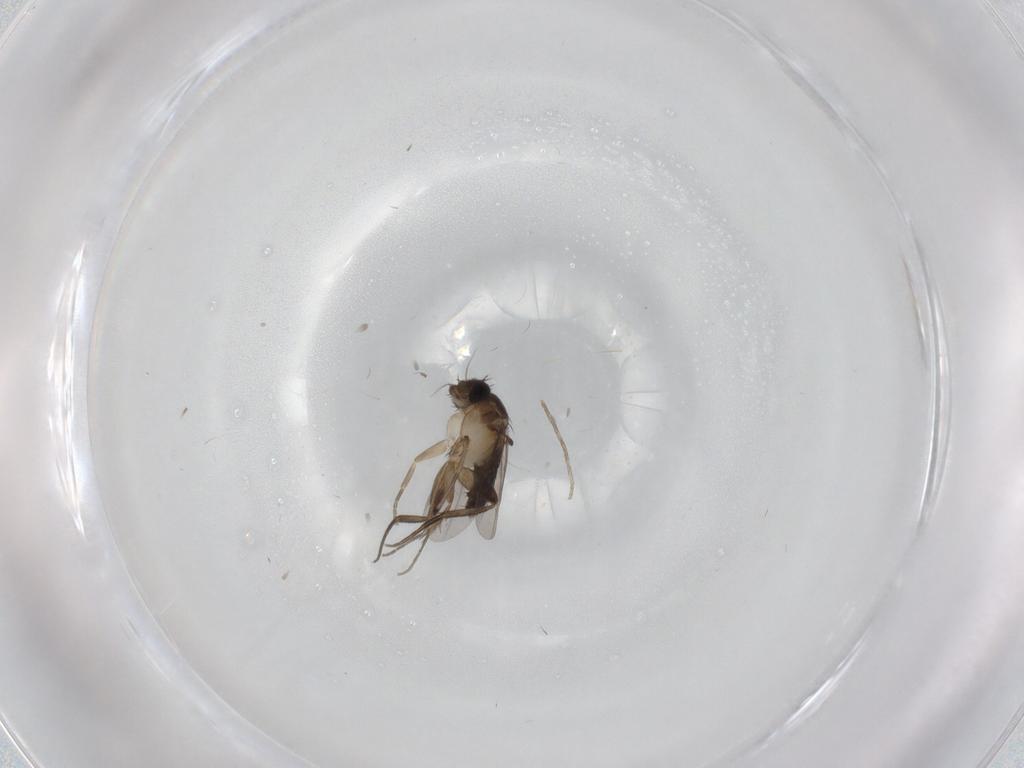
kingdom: Animalia
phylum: Arthropoda
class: Insecta
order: Diptera
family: Phoridae
